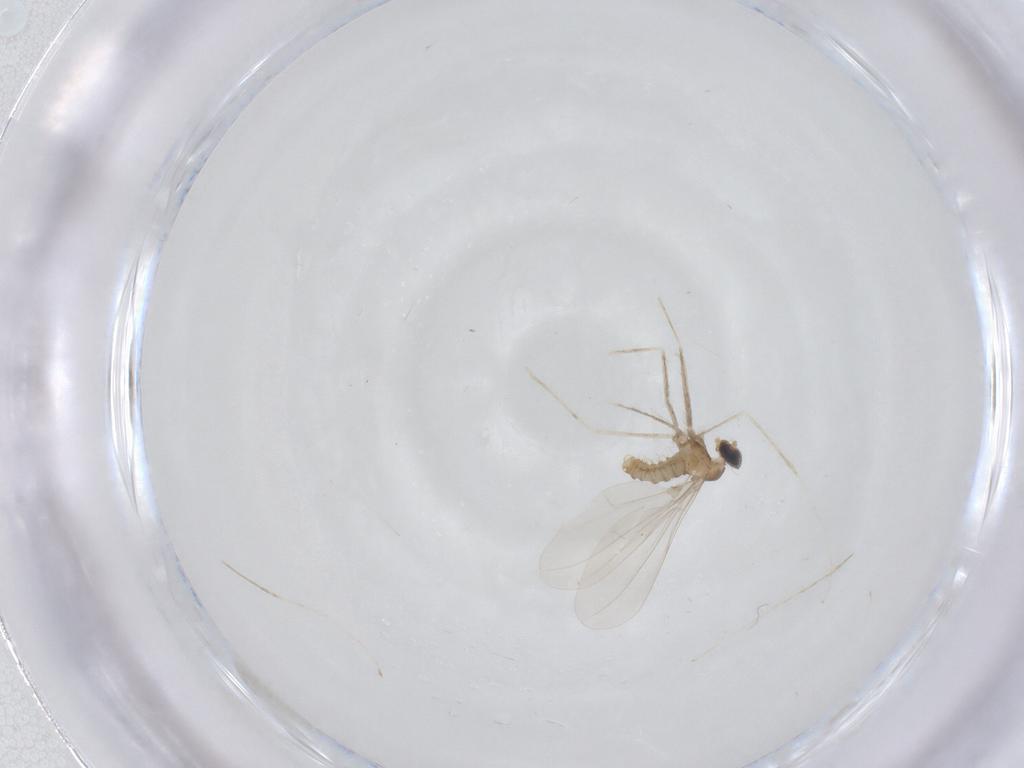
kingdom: Animalia
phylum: Arthropoda
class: Insecta
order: Diptera
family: Cecidomyiidae
